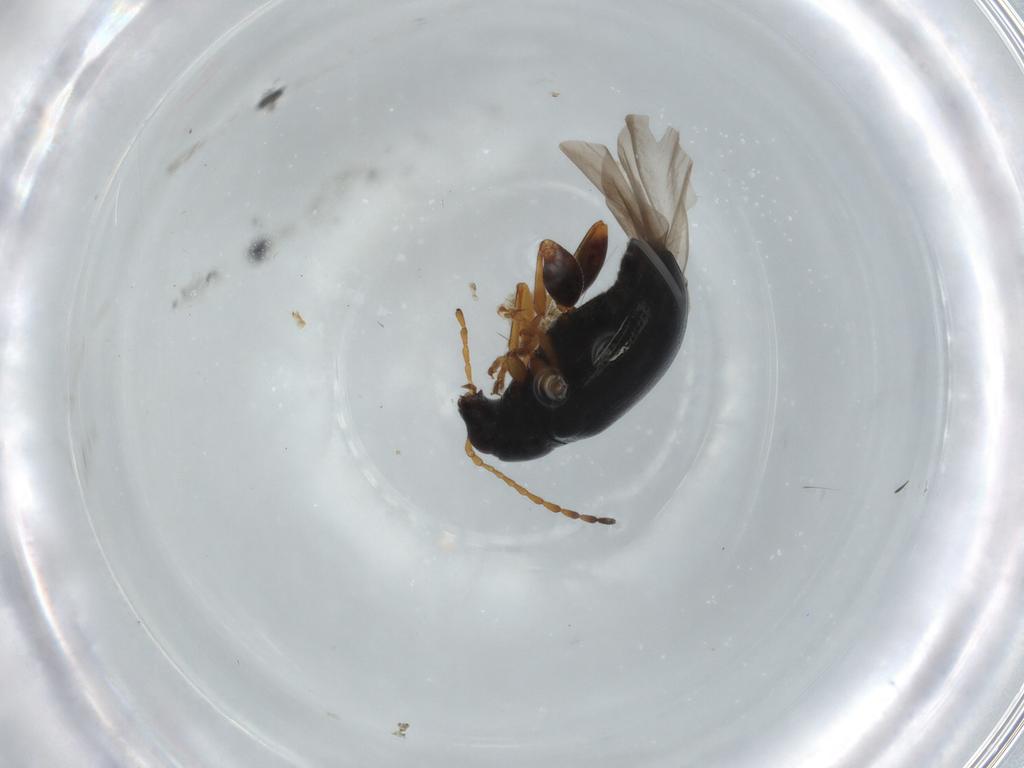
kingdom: Animalia
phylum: Arthropoda
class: Insecta
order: Coleoptera
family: Chrysomelidae
